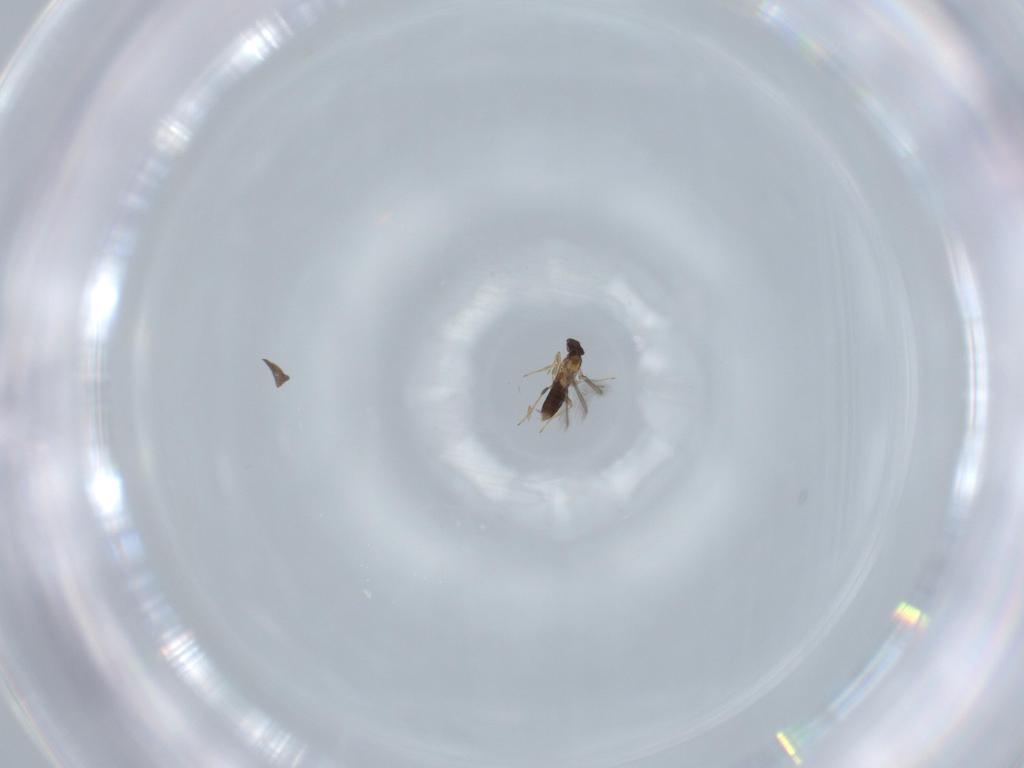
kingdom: Animalia
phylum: Arthropoda
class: Insecta
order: Hymenoptera
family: Mymaridae
